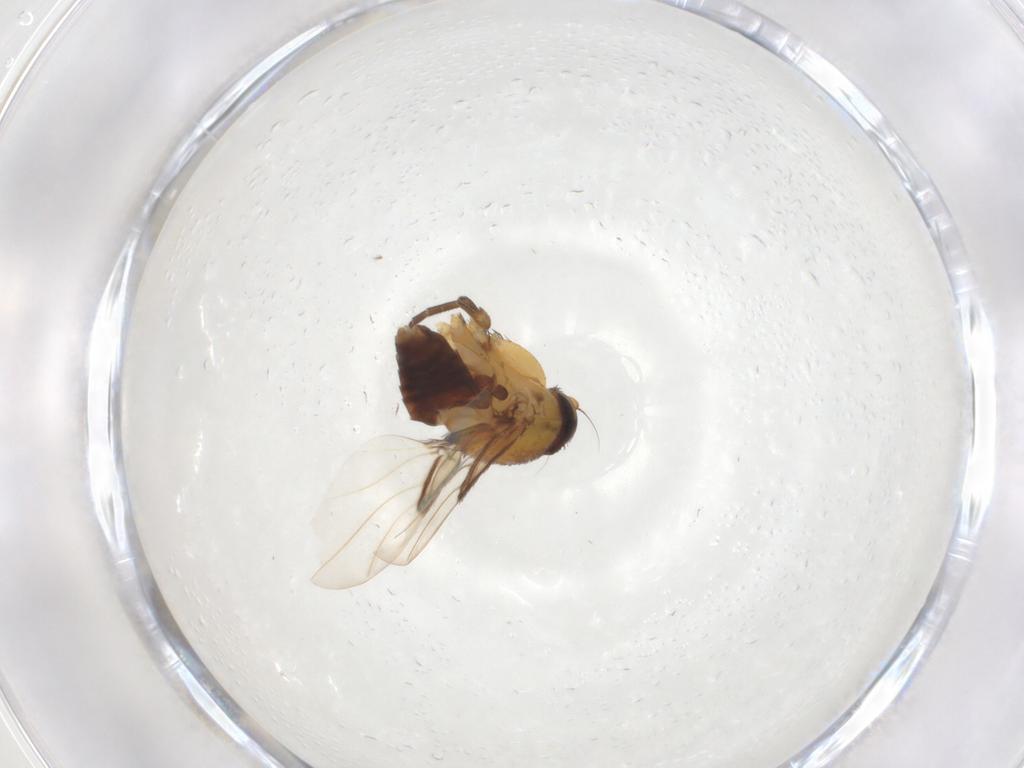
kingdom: Animalia
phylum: Arthropoda
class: Insecta
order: Diptera
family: Phoridae
